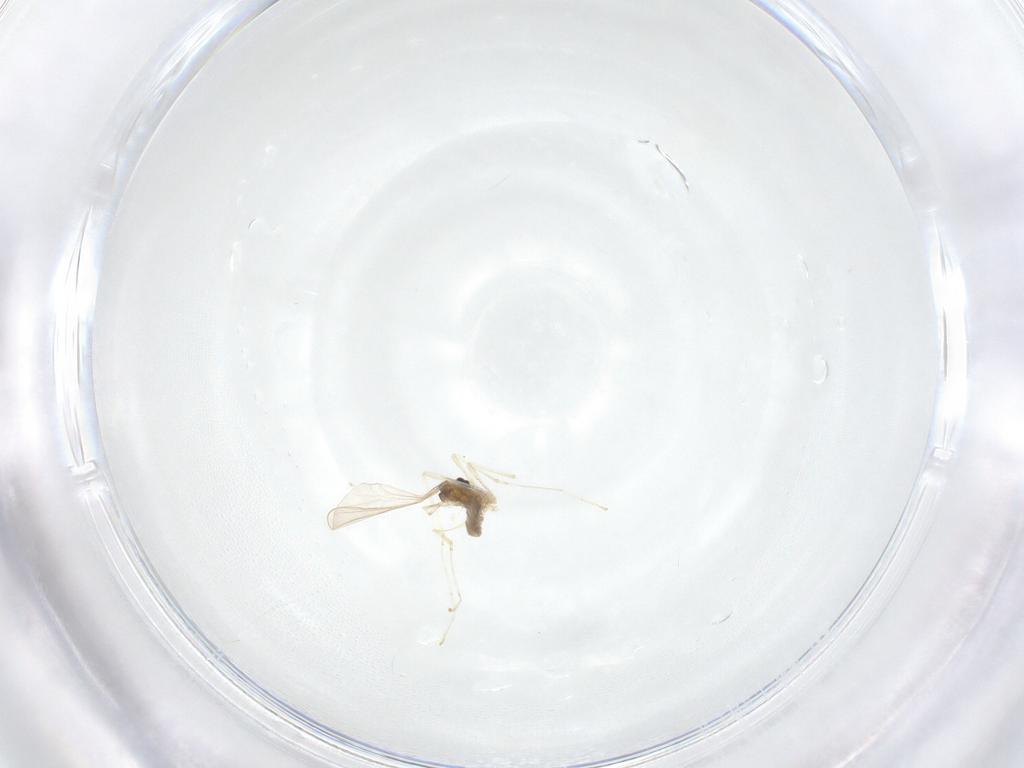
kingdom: Animalia
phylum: Arthropoda
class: Insecta
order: Diptera
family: Cecidomyiidae
